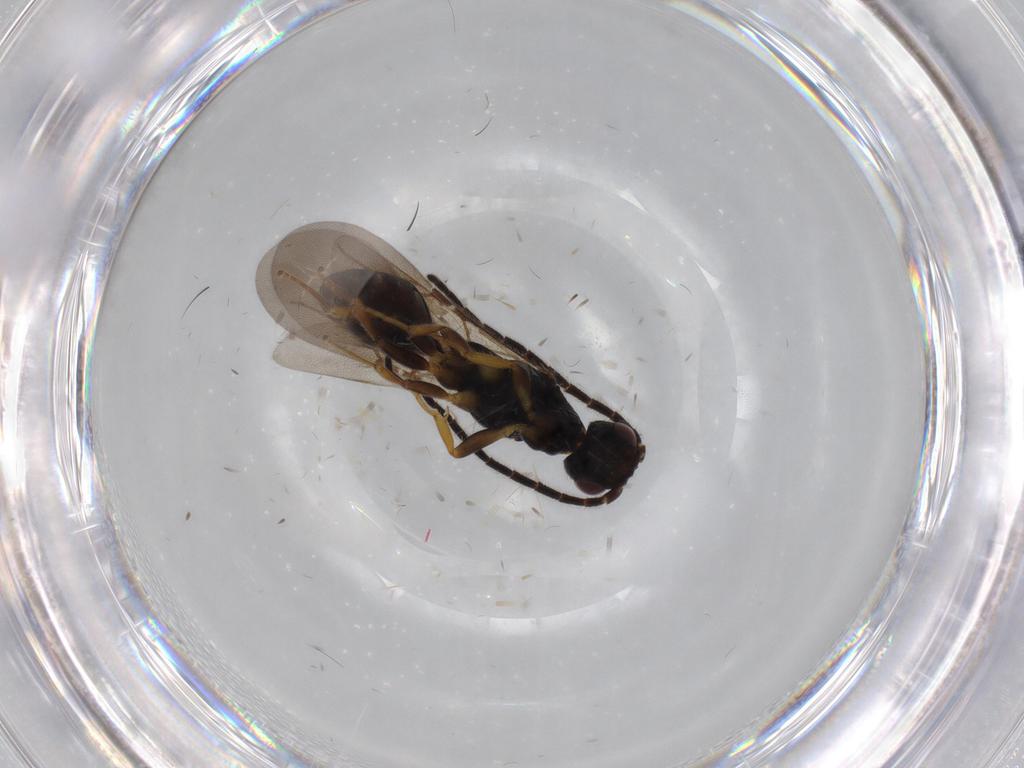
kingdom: Animalia
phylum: Arthropoda
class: Insecta
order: Hymenoptera
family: Bethylidae
